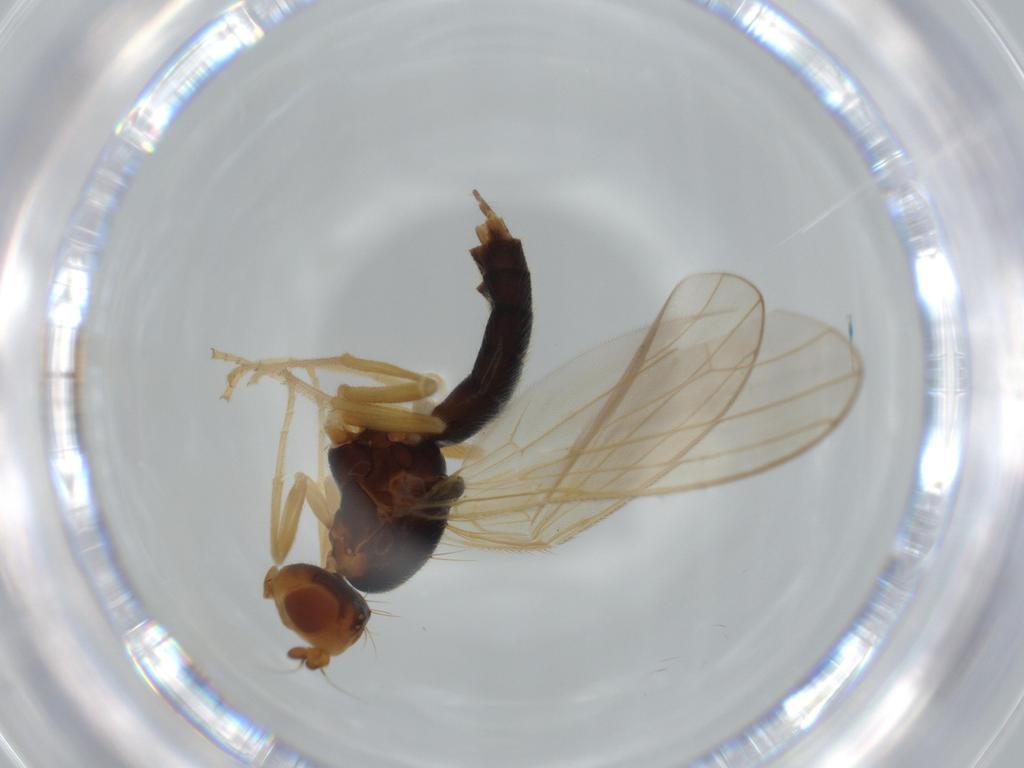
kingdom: Animalia
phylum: Arthropoda
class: Insecta
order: Diptera
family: Psilidae
